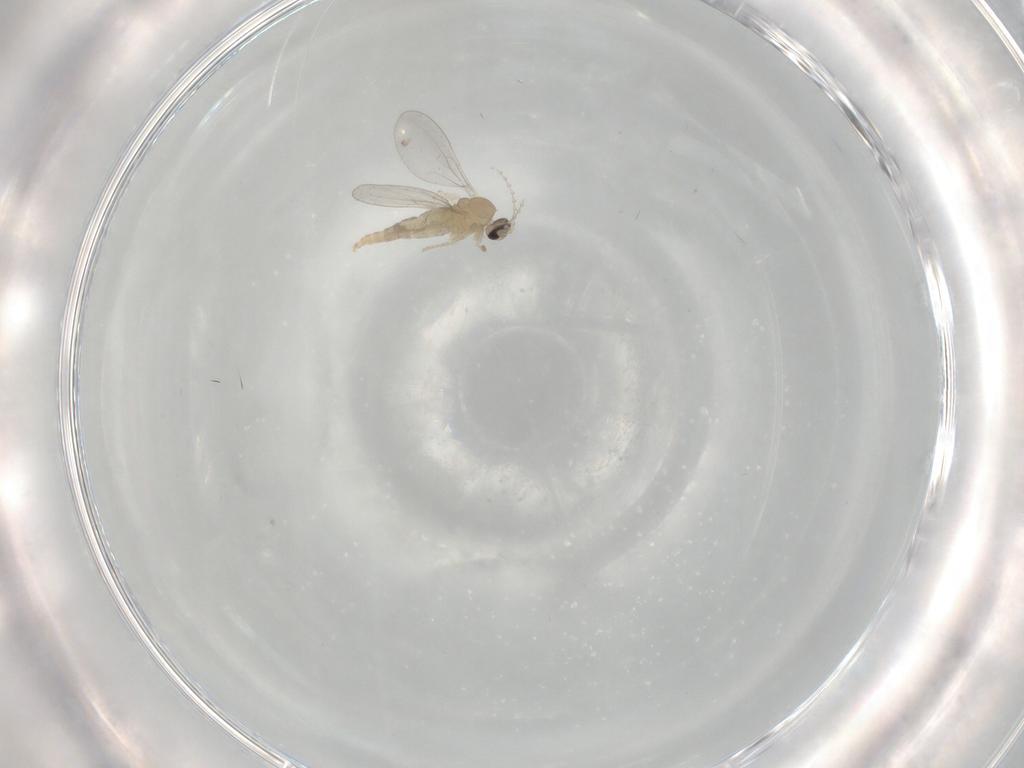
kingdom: Animalia
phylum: Arthropoda
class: Insecta
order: Diptera
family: Cecidomyiidae
